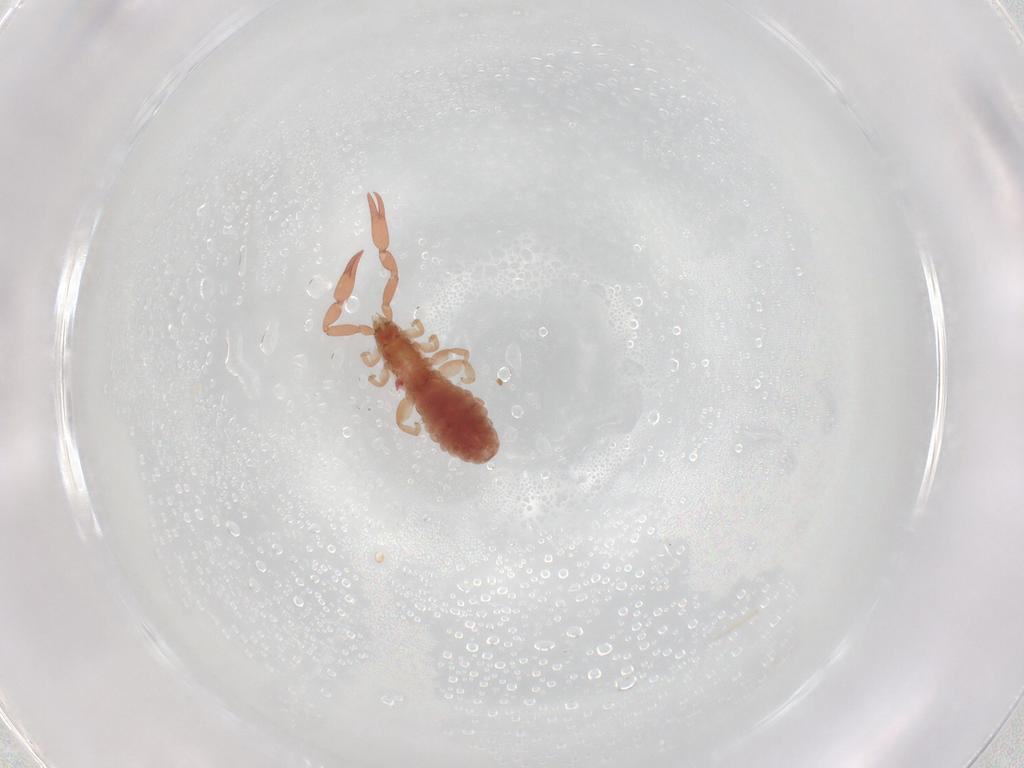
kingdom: Animalia
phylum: Arthropoda
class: Arachnida
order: Pseudoscorpiones
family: Garypinidae
